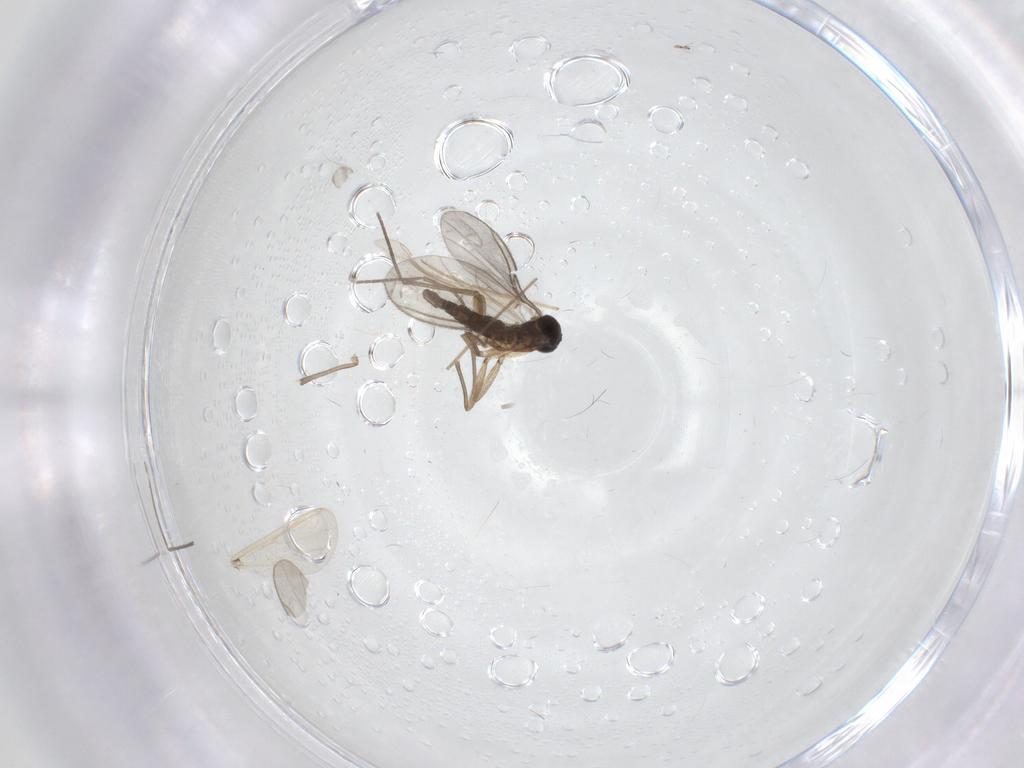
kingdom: Animalia
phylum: Arthropoda
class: Insecta
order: Diptera
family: Sciaridae
